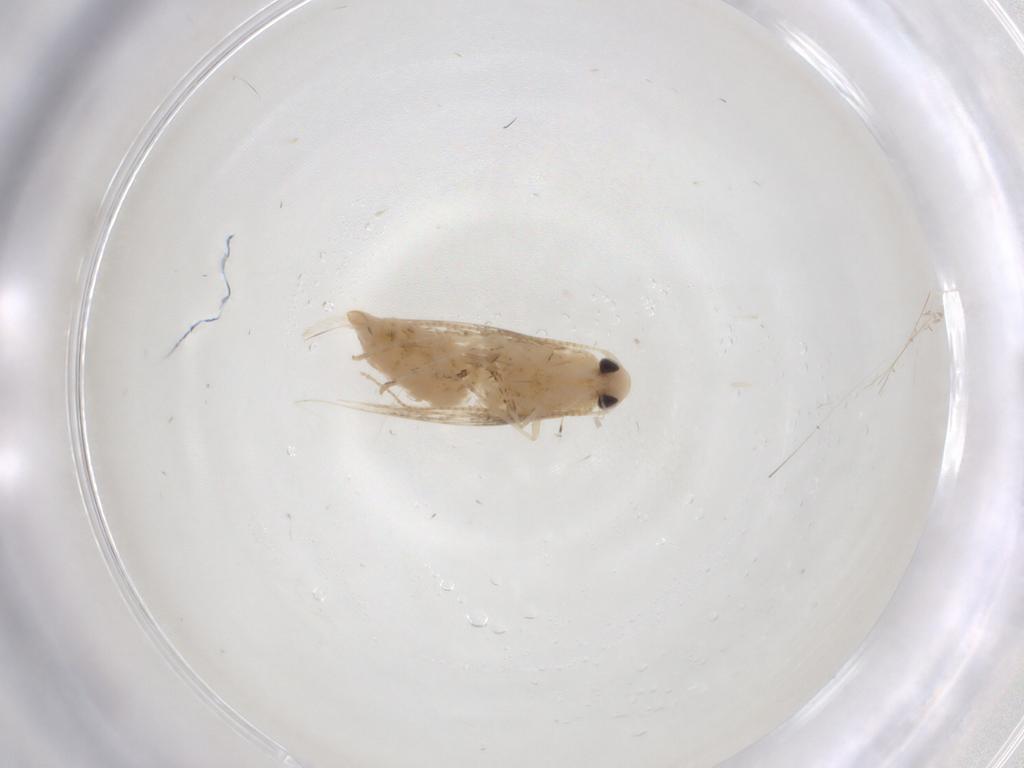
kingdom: Animalia
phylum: Arthropoda
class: Insecta
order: Lepidoptera
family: Gracillariidae
